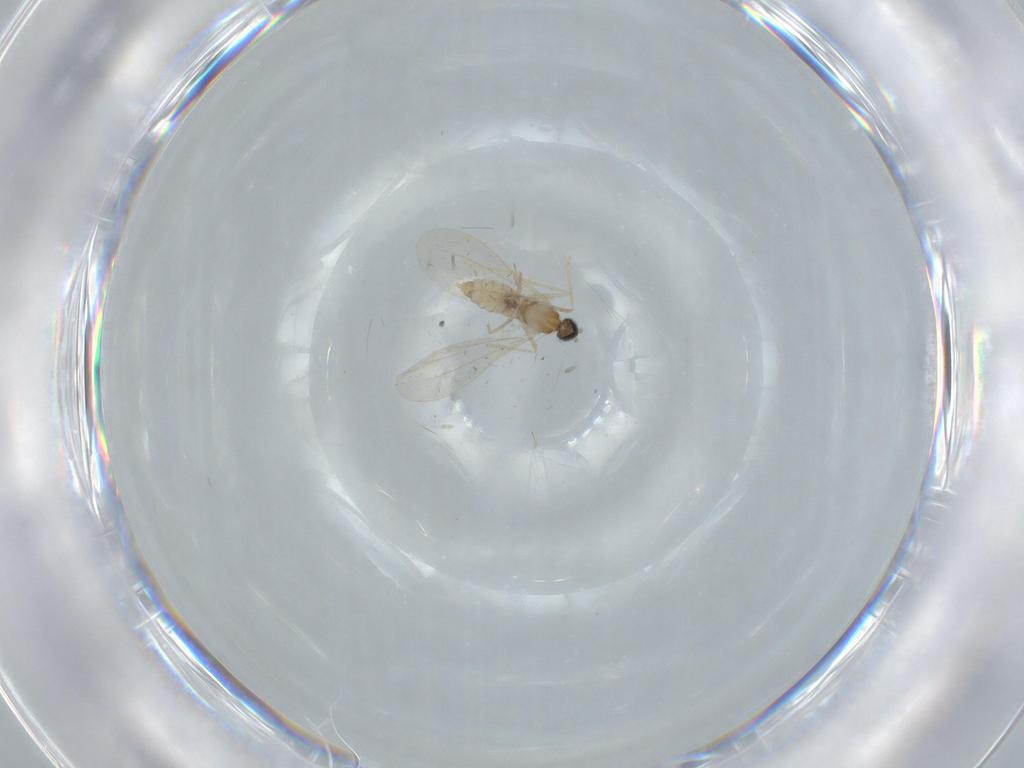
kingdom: Animalia
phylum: Arthropoda
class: Insecta
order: Diptera
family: Cecidomyiidae
